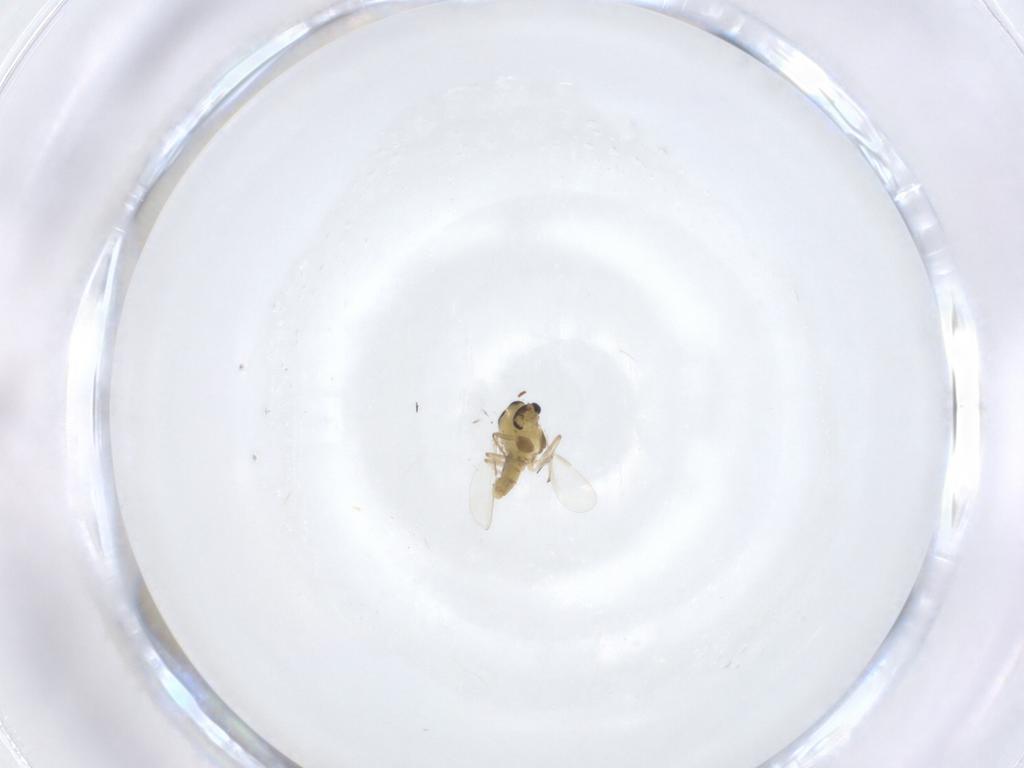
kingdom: Animalia
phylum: Arthropoda
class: Insecta
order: Diptera
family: Chironomidae
